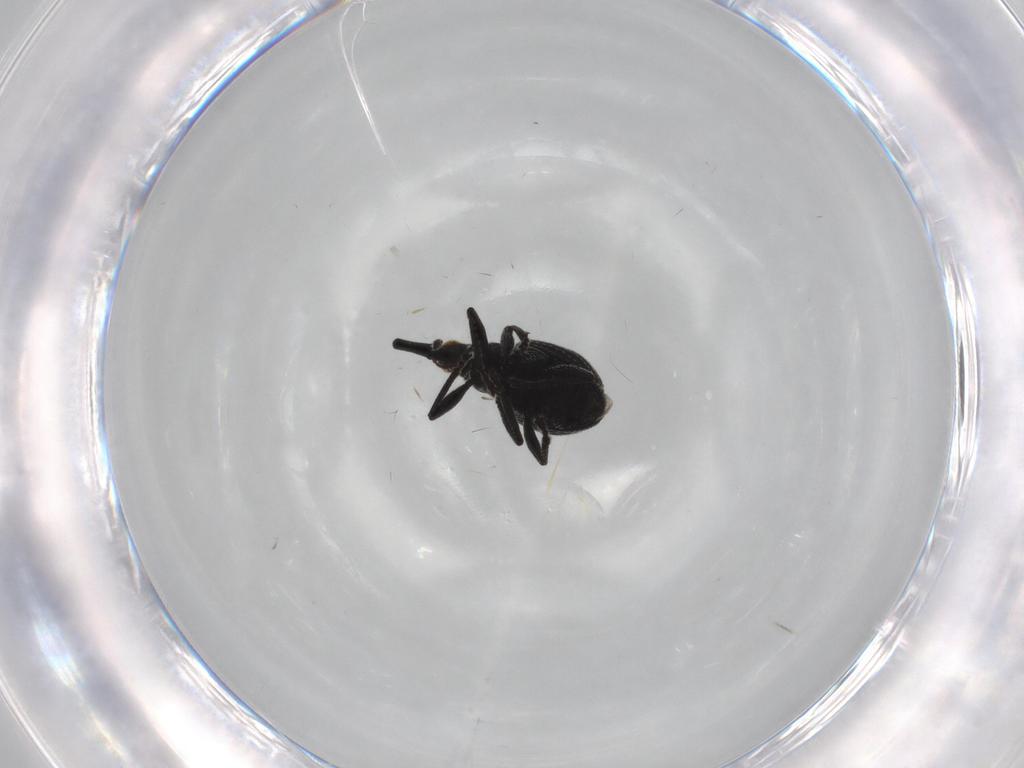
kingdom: Animalia
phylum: Arthropoda
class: Insecta
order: Coleoptera
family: Brentidae
